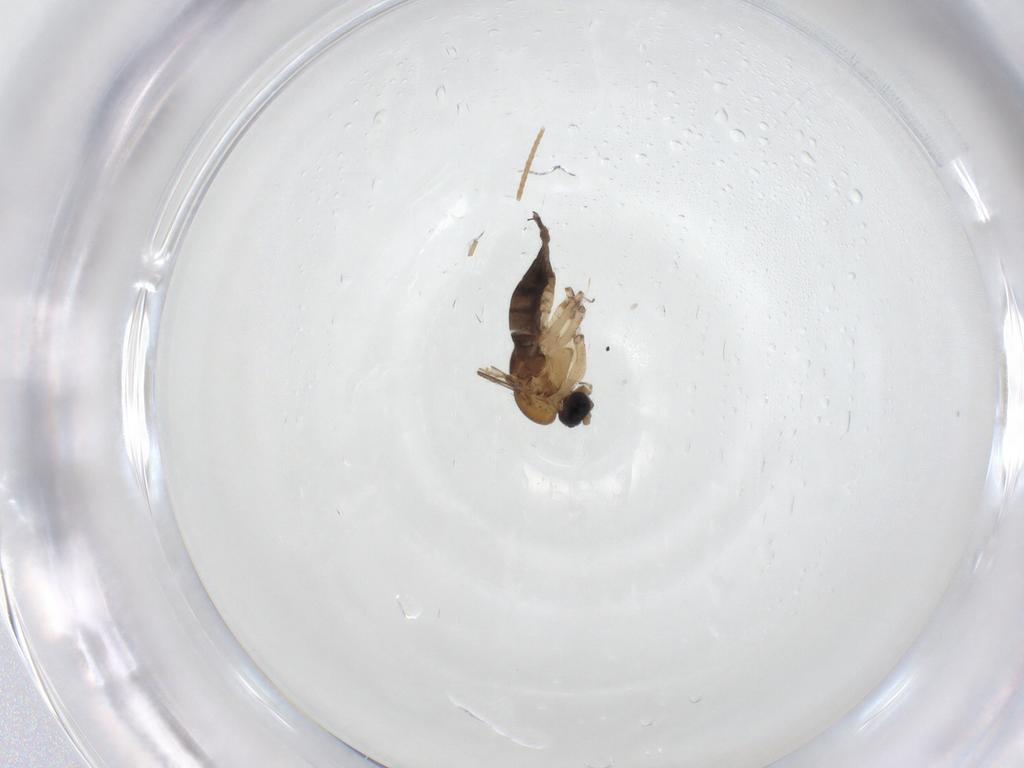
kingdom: Animalia
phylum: Arthropoda
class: Insecta
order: Diptera
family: Sciaridae
